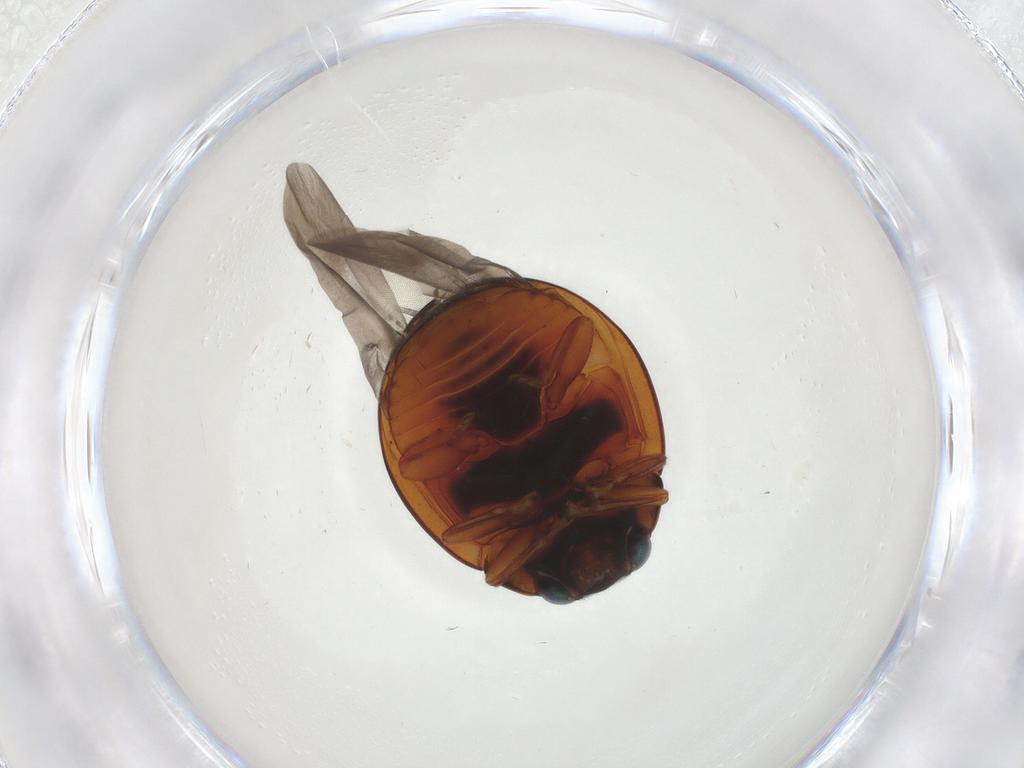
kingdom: Animalia
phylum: Arthropoda
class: Insecta
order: Coleoptera
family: Coccinellidae
